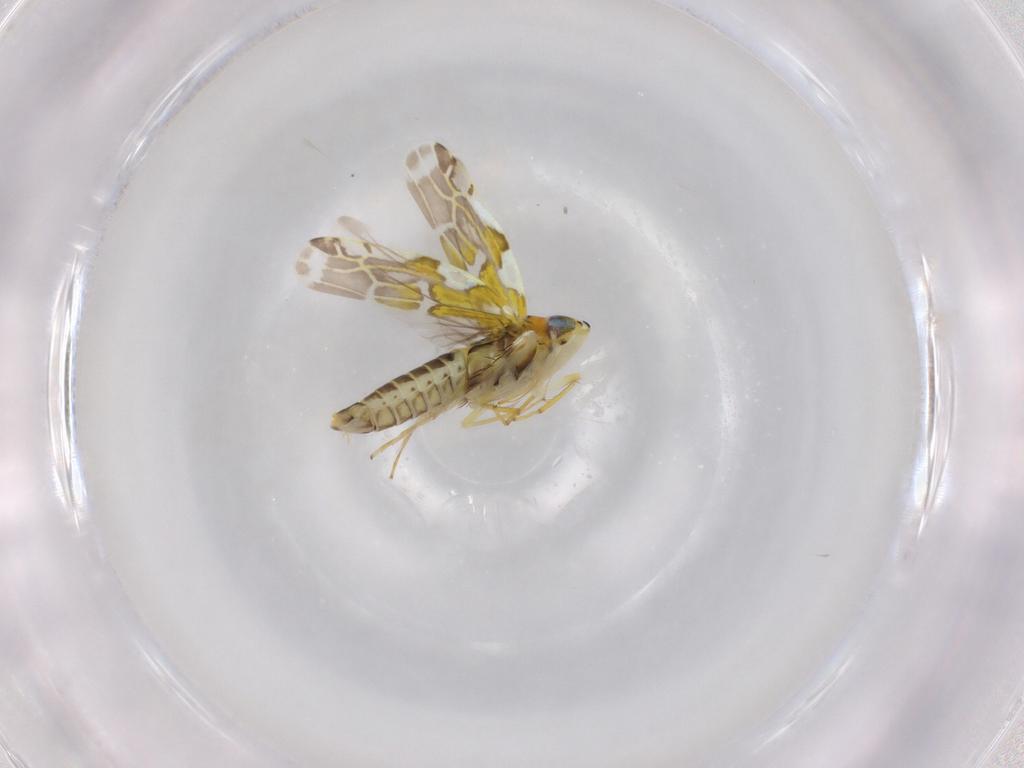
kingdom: Animalia
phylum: Arthropoda
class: Insecta
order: Hemiptera
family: Cicadellidae
